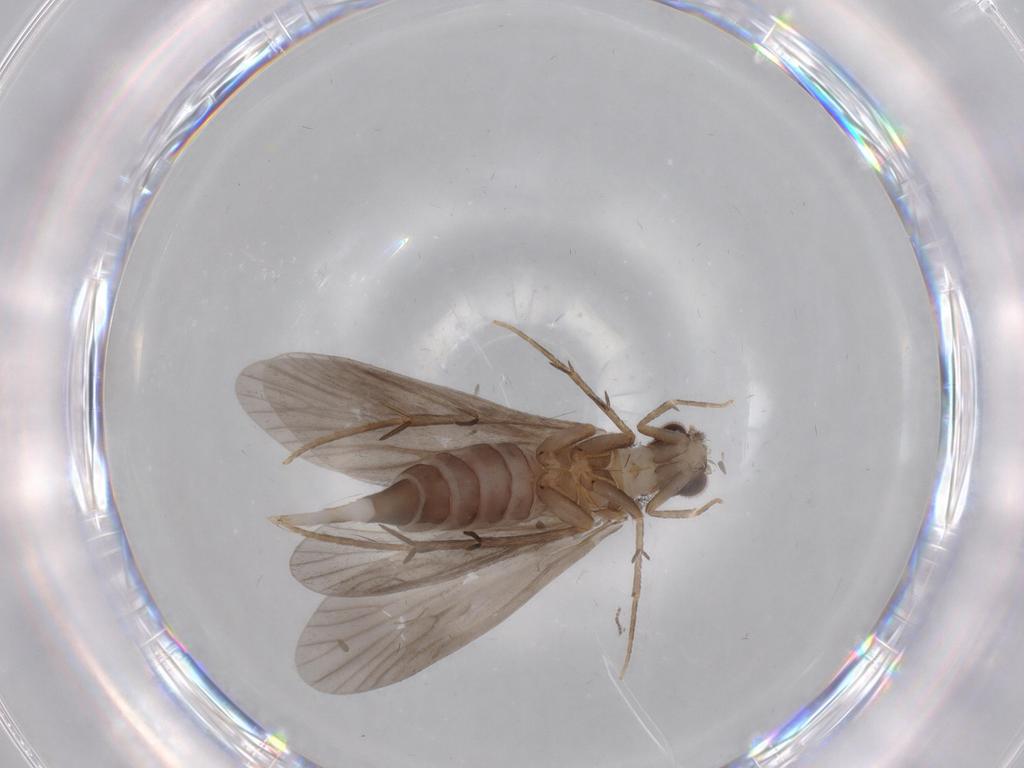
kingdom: Animalia
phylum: Arthropoda
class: Insecta
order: Trichoptera
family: Philopotamidae
